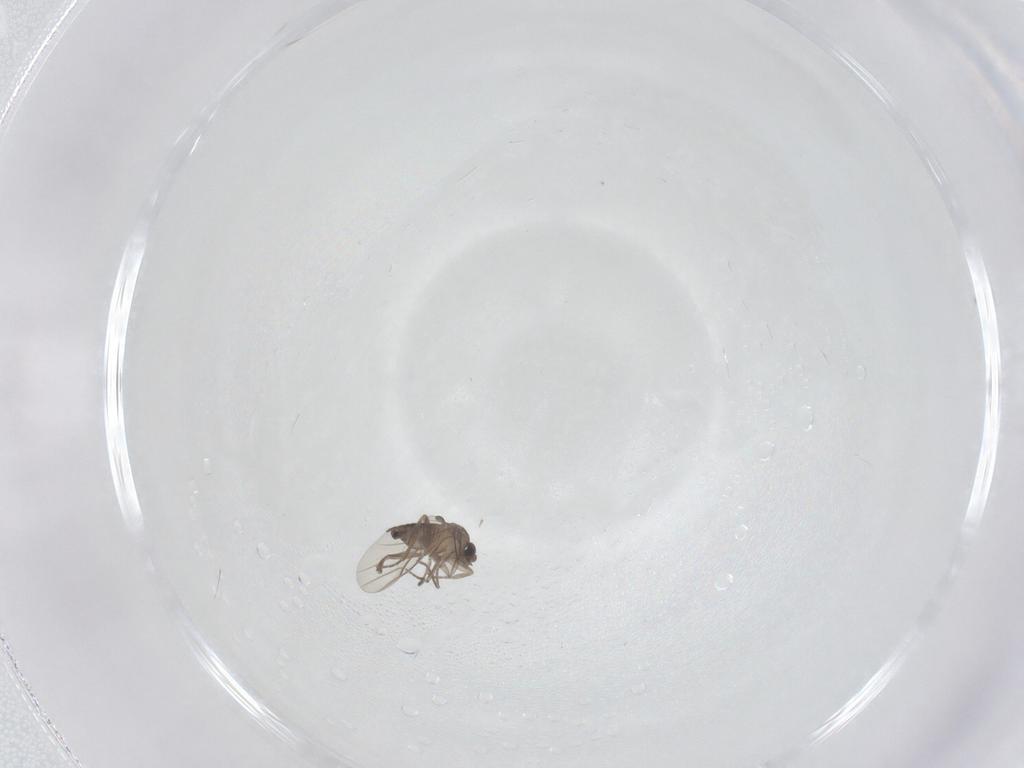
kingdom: Animalia
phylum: Arthropoda
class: Insecta
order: Diptera
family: Phoridae
